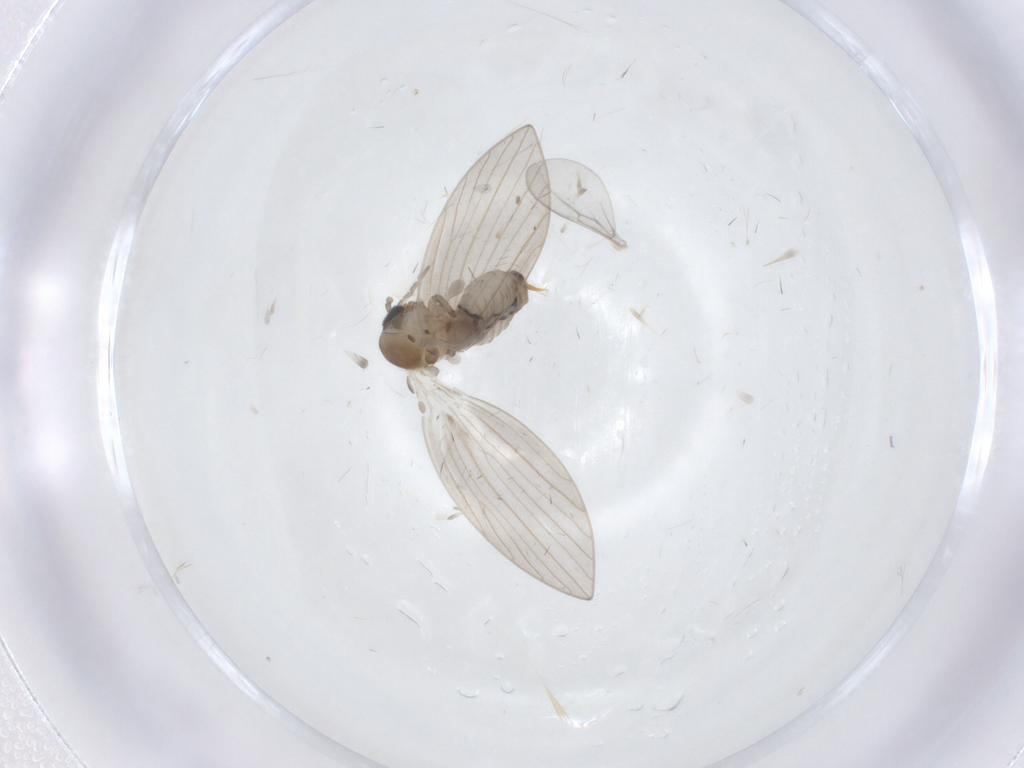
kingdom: Animalia
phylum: Arthropoda
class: Insecta
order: Diptera
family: Psychodidae
